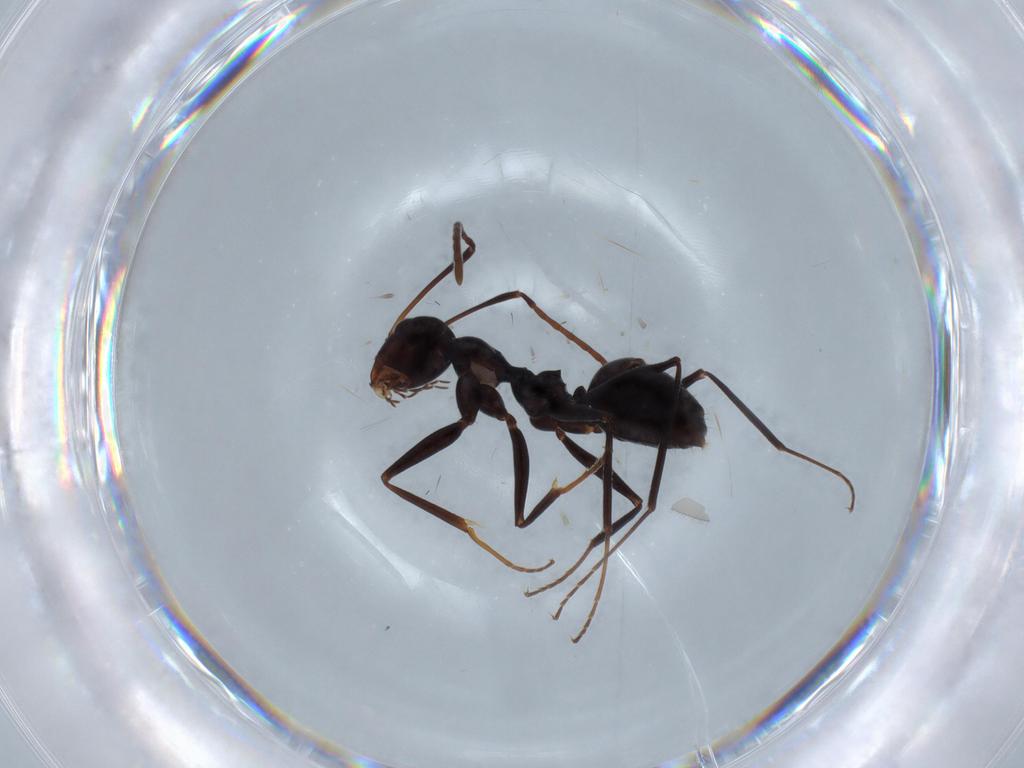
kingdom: Animalia
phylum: Arthropoda
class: Insecta
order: Hymenoptera
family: Formicidae
